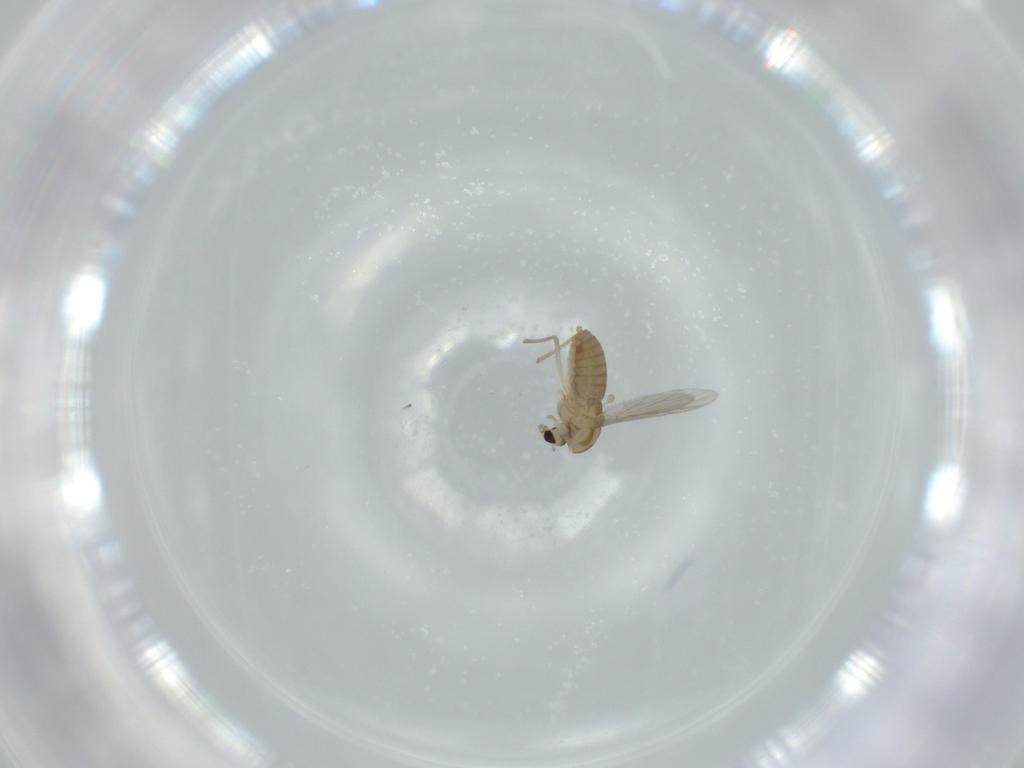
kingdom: Animalia
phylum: Arthropoda
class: Insecta
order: Diptera
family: Chironomidae
